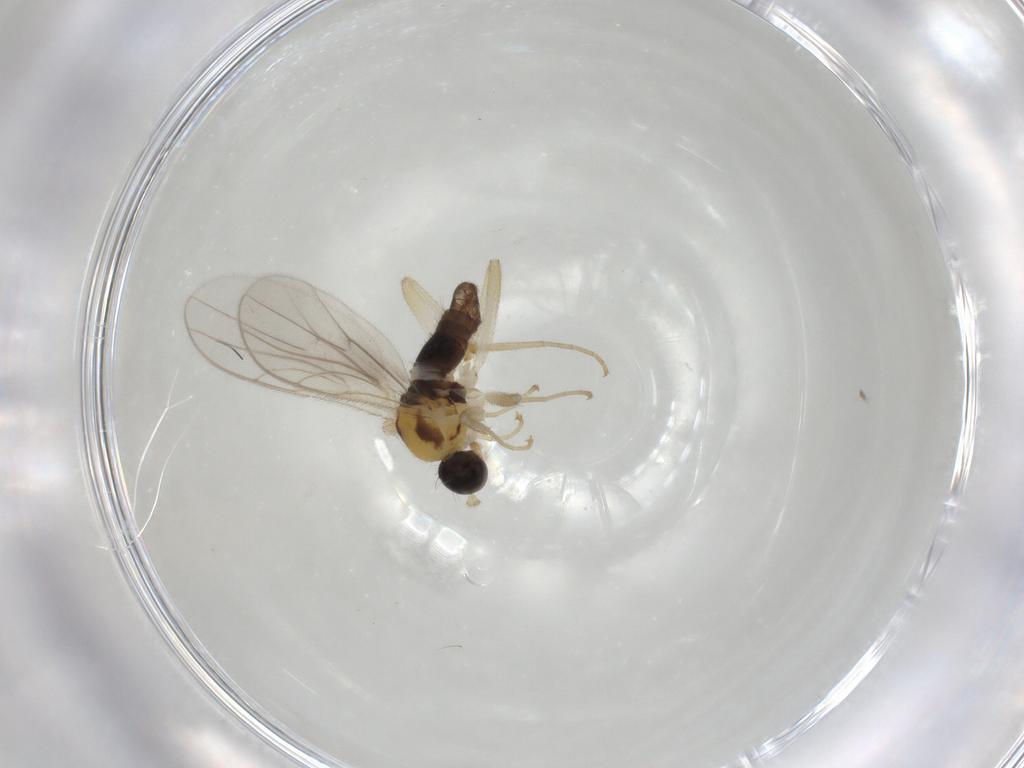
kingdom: Animalia
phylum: Arthropoda
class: Insecta
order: Diptera
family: Hybotidae
